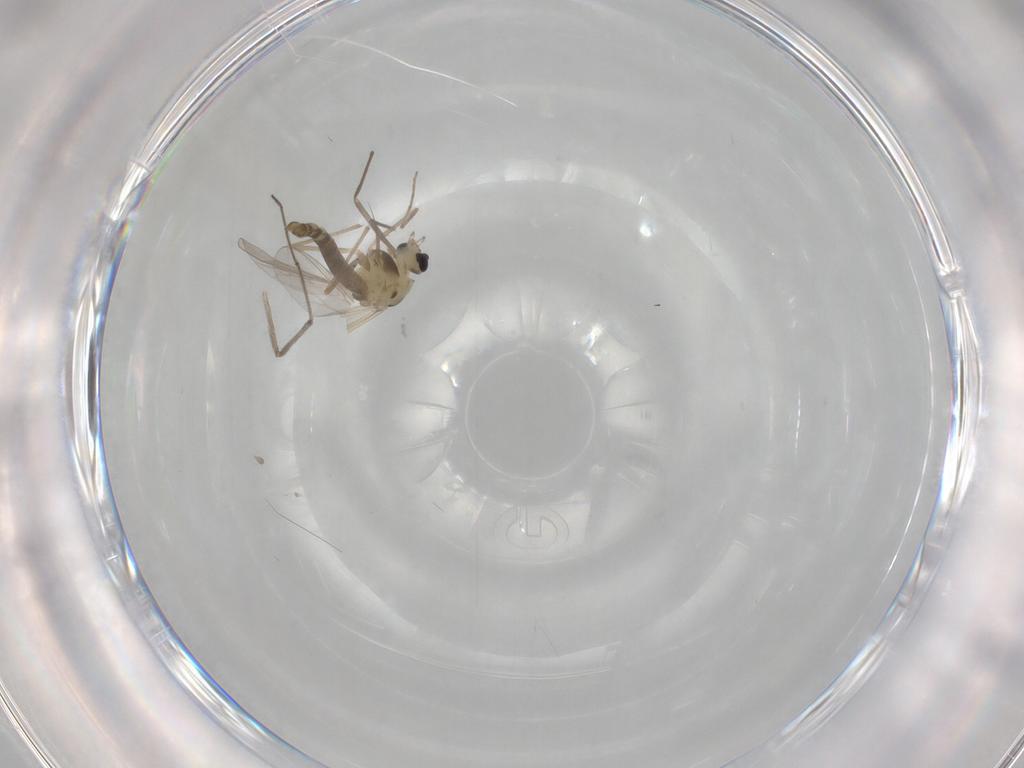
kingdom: Animalia
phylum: Arthropoda
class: Insecta
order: Diptera
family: Chironomidae
